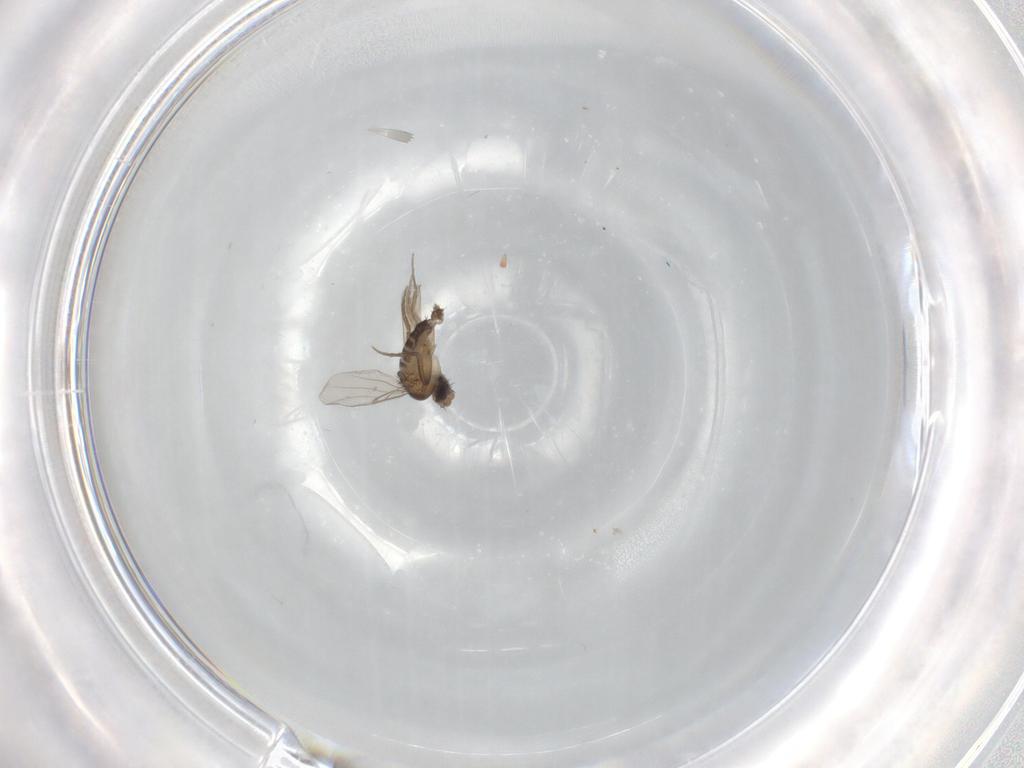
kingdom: Animalia
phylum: Arthropoda
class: Insecta
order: Diptera
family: Phoridae
